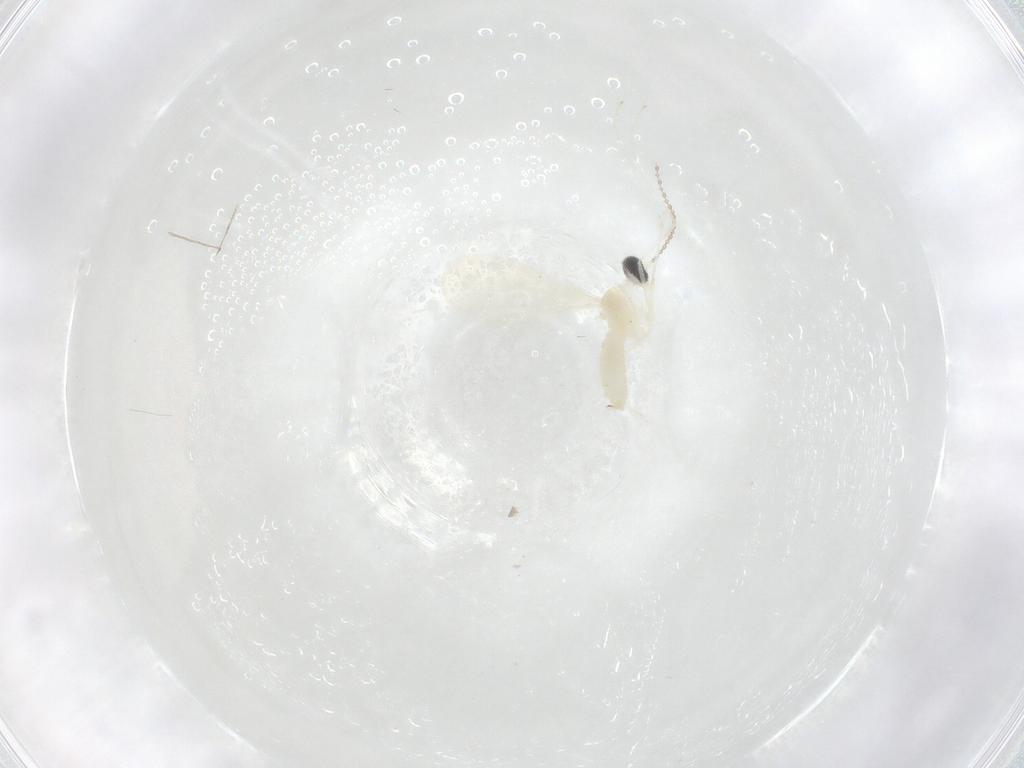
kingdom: Animalia
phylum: Arthropoda
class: Insecta
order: Diptera
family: Cecidomyiidae
